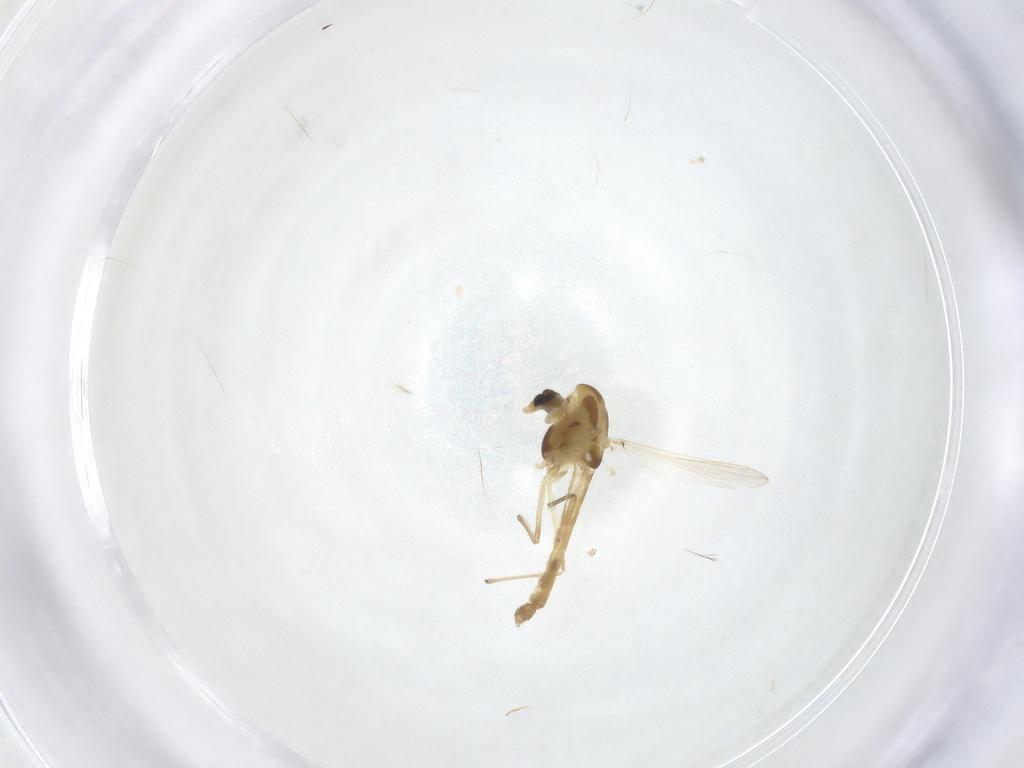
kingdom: Animalia
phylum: Arthropoda
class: Insecta
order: Diptera
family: Chironomidae
